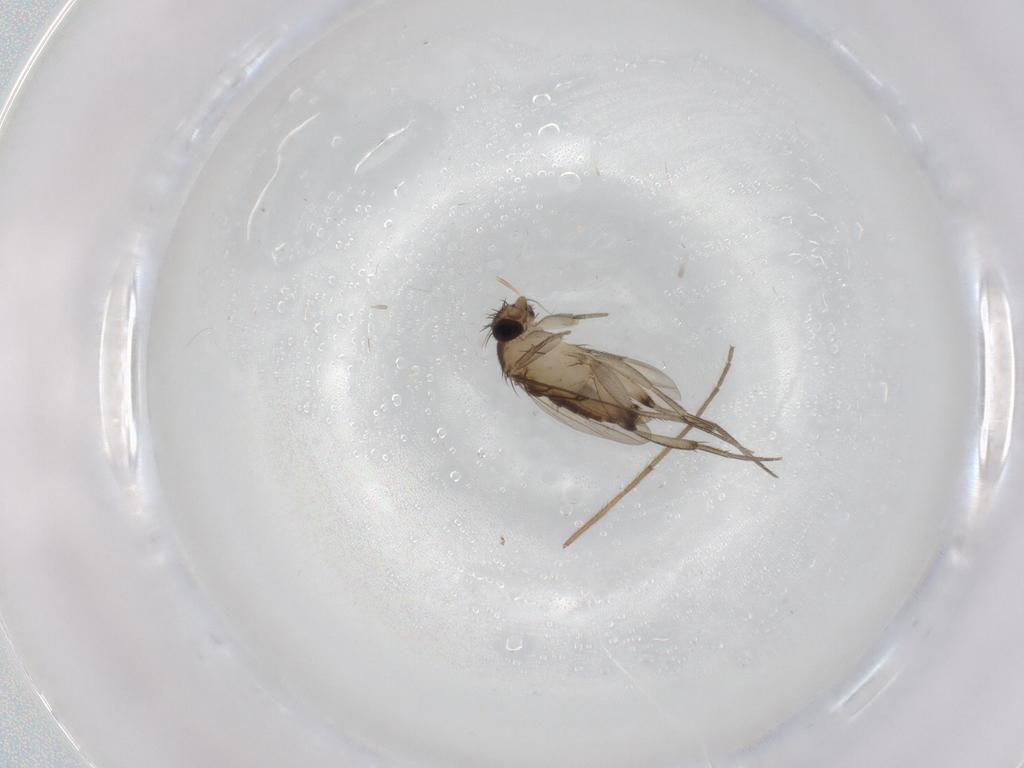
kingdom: Animalia
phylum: Arthropoda
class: Insecta
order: Diptera
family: Phoridae
